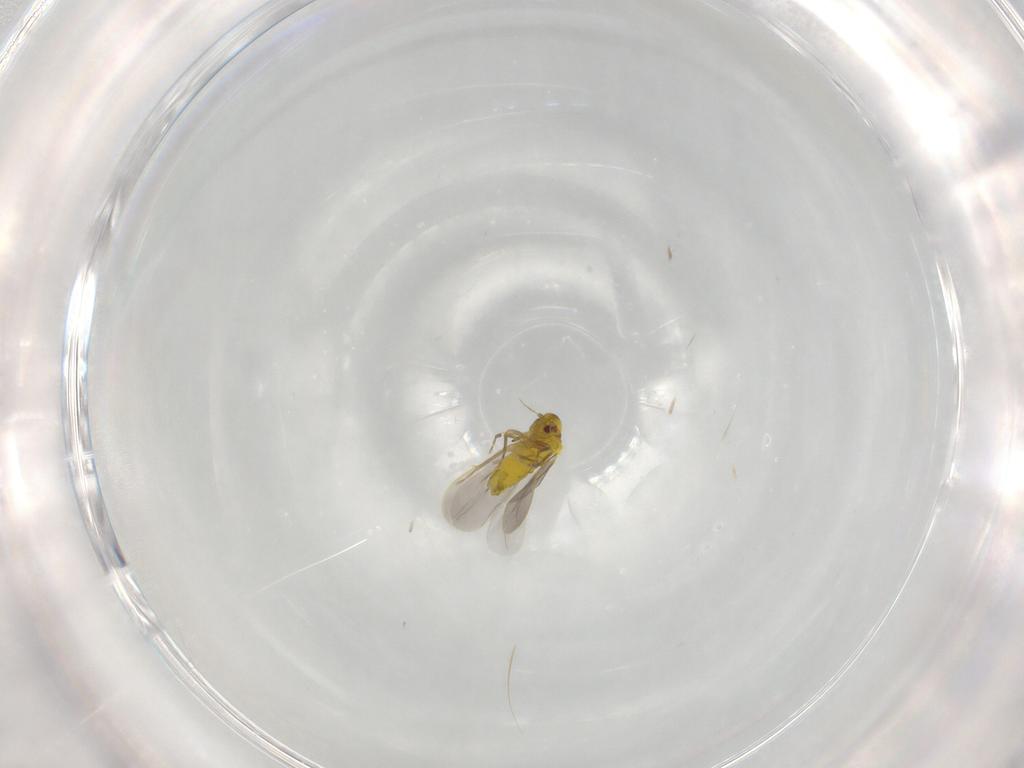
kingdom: Animalia
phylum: Arthropoda
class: Insecta
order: Hemiptera
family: Aleyrodidae
